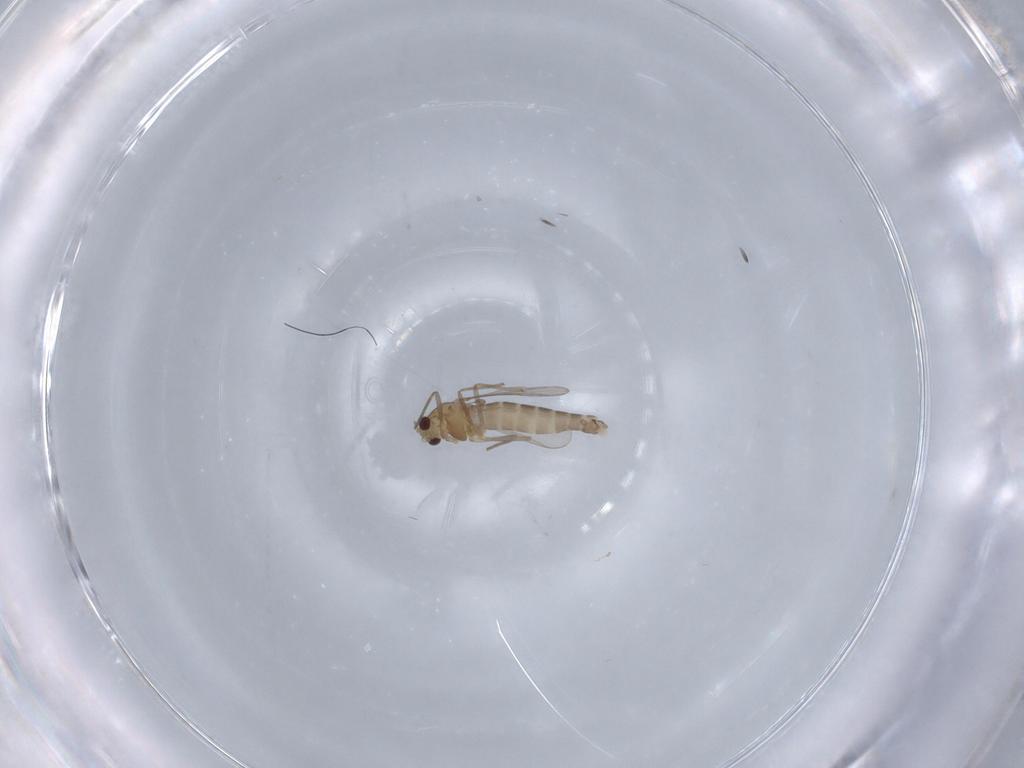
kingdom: Animalia
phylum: Arthropoda
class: Insecta
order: Diptera
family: Chironomidae
